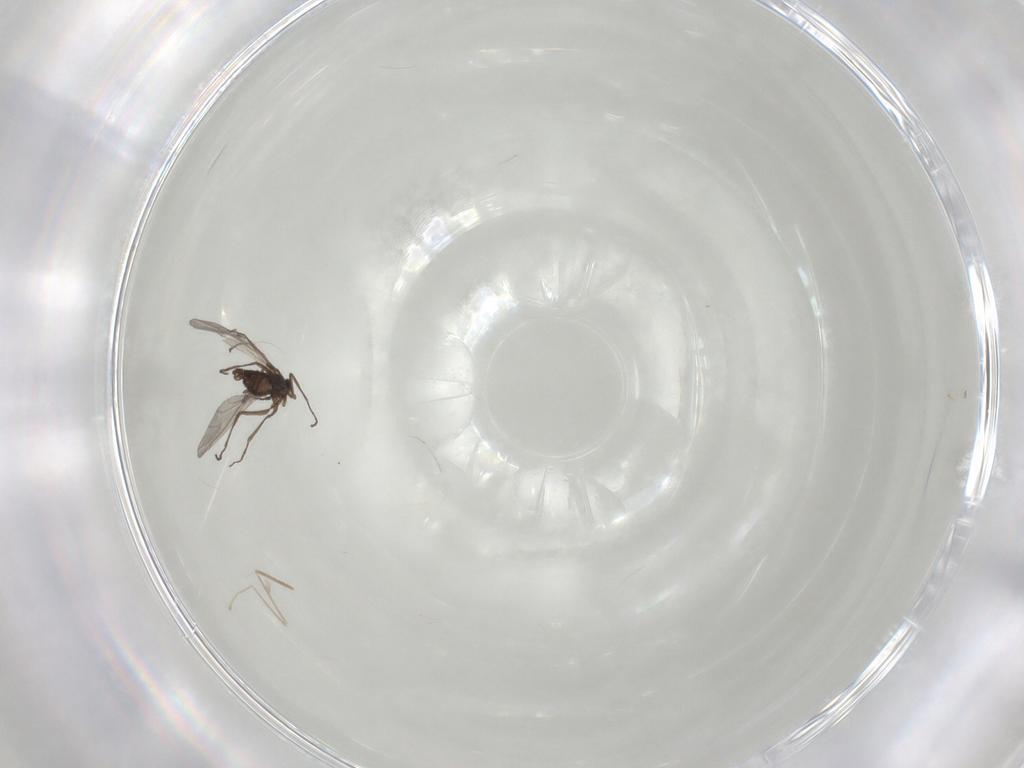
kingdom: Animalia
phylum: Arthropoda
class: Insecta
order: Diptera
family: Sciaridae
